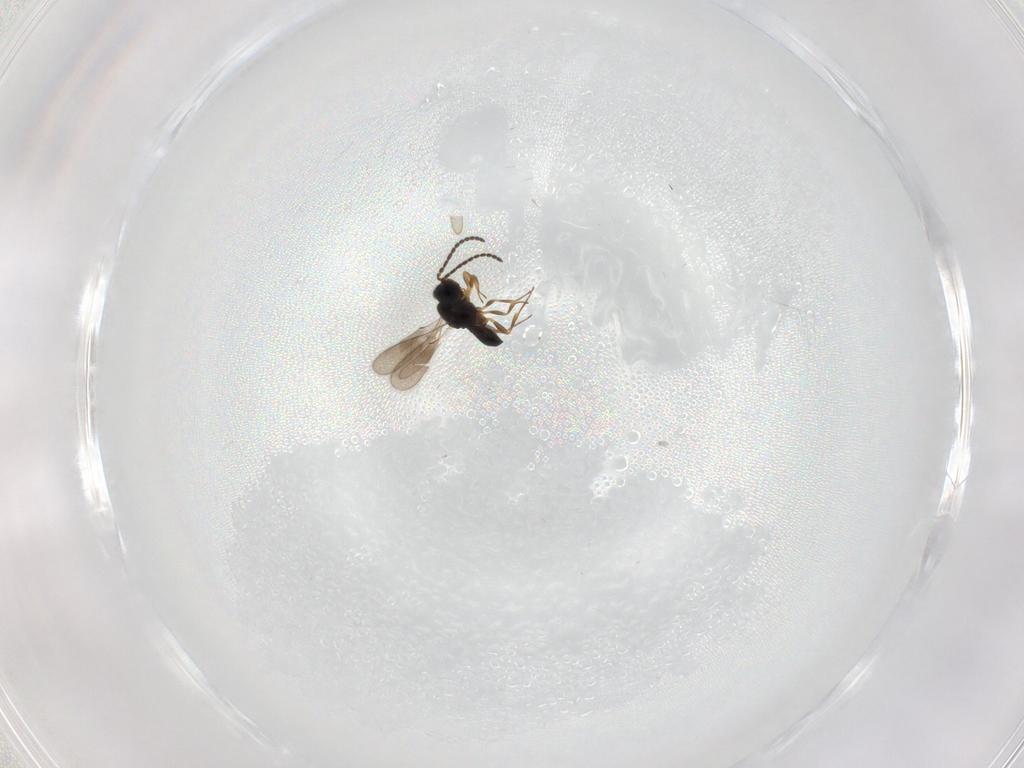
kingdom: Animalia
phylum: Arthropoda
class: Insecta
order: Hymenoptera
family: Scelionidae
